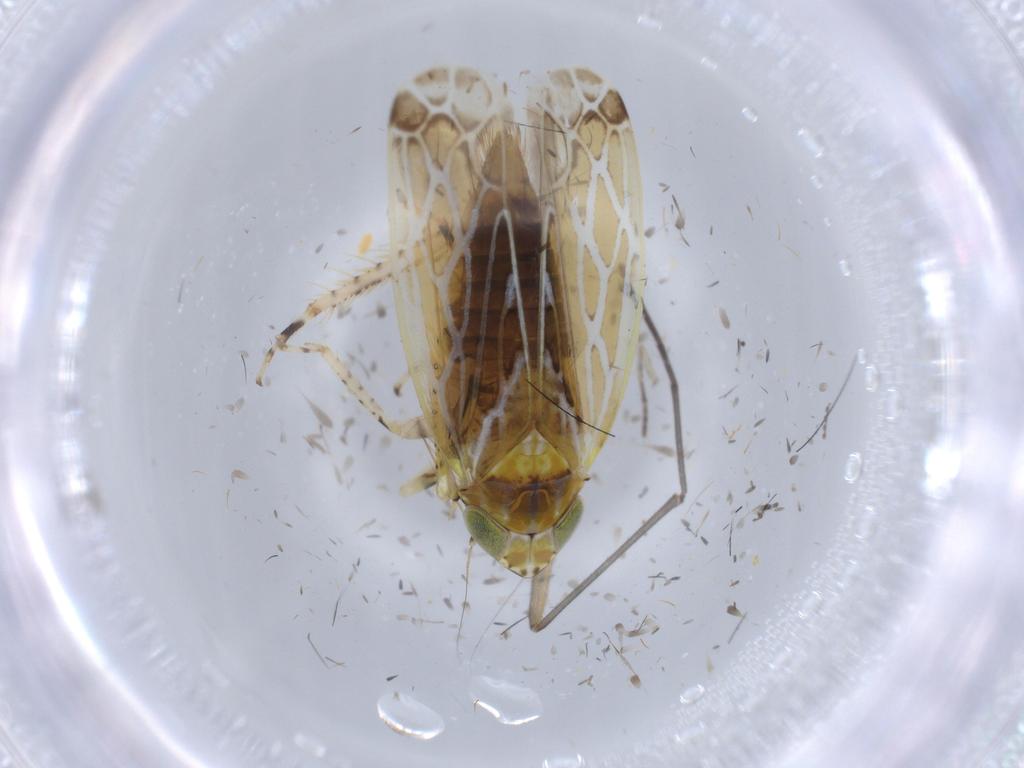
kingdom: Animalia
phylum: Arthropoda
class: Insecta
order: Hemiptera
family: Cicadellidae
